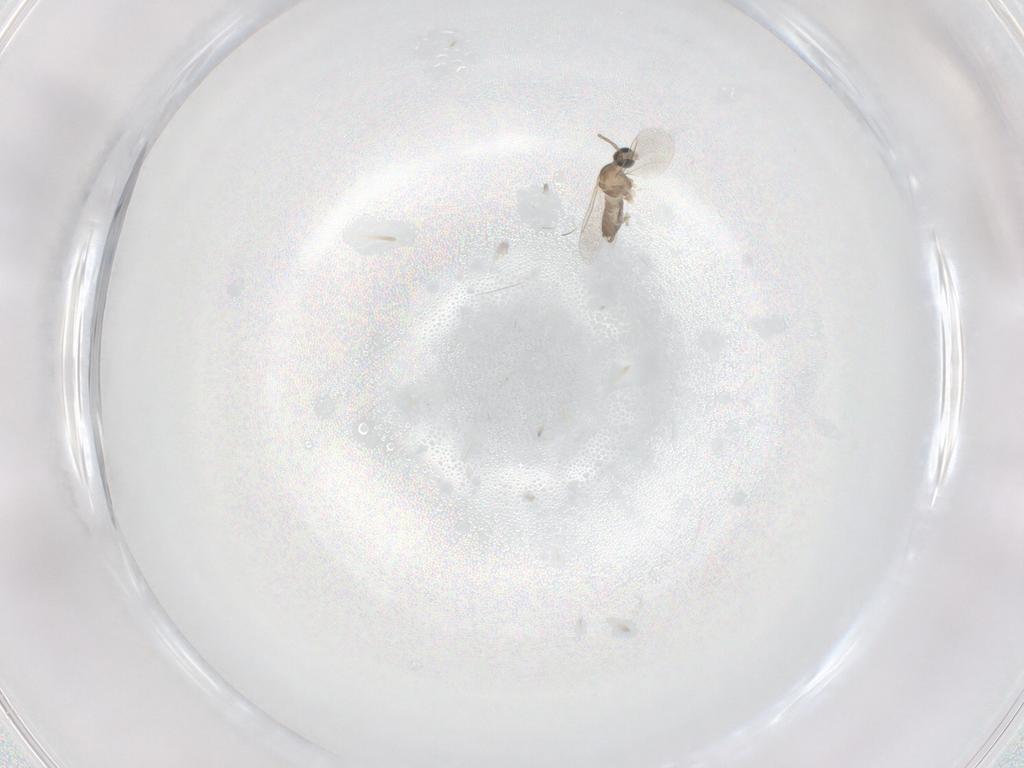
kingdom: Animalia
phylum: Arthropoda
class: Insecta
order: Diptera
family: Cecidomyiidae
